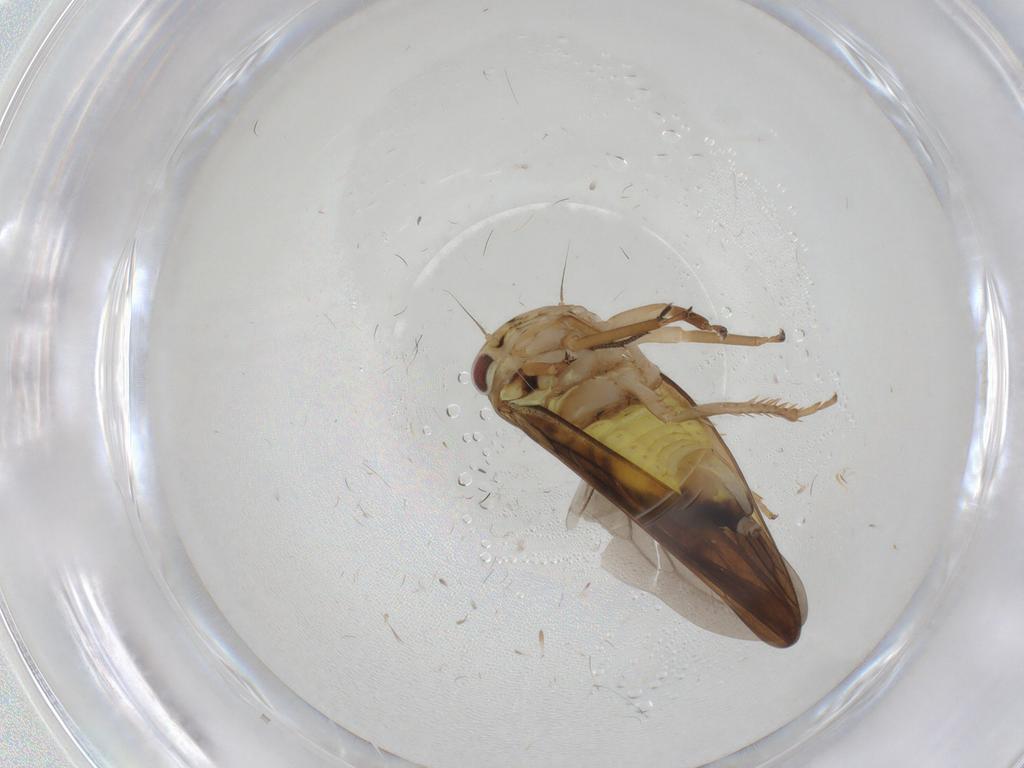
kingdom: Animalia
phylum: Arthropoda
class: Insecta
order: Hemiptera
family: Cicadellidae
